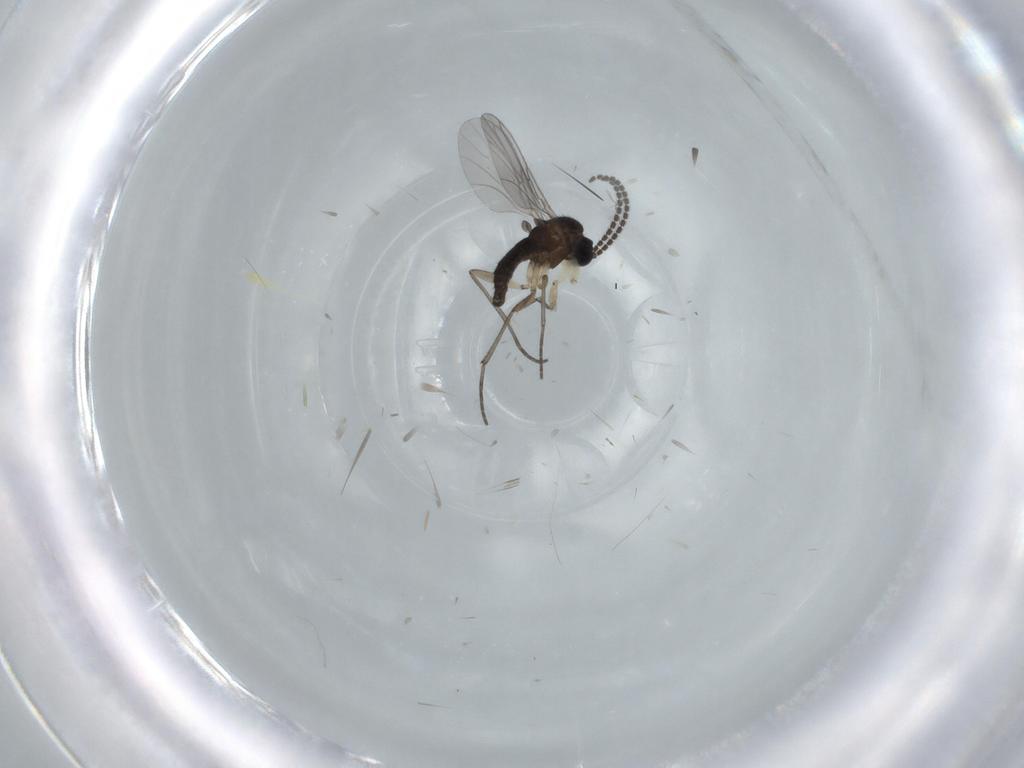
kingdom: Animalia
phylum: Arthropoda
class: Insecta
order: Diptera
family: Sciaridae
